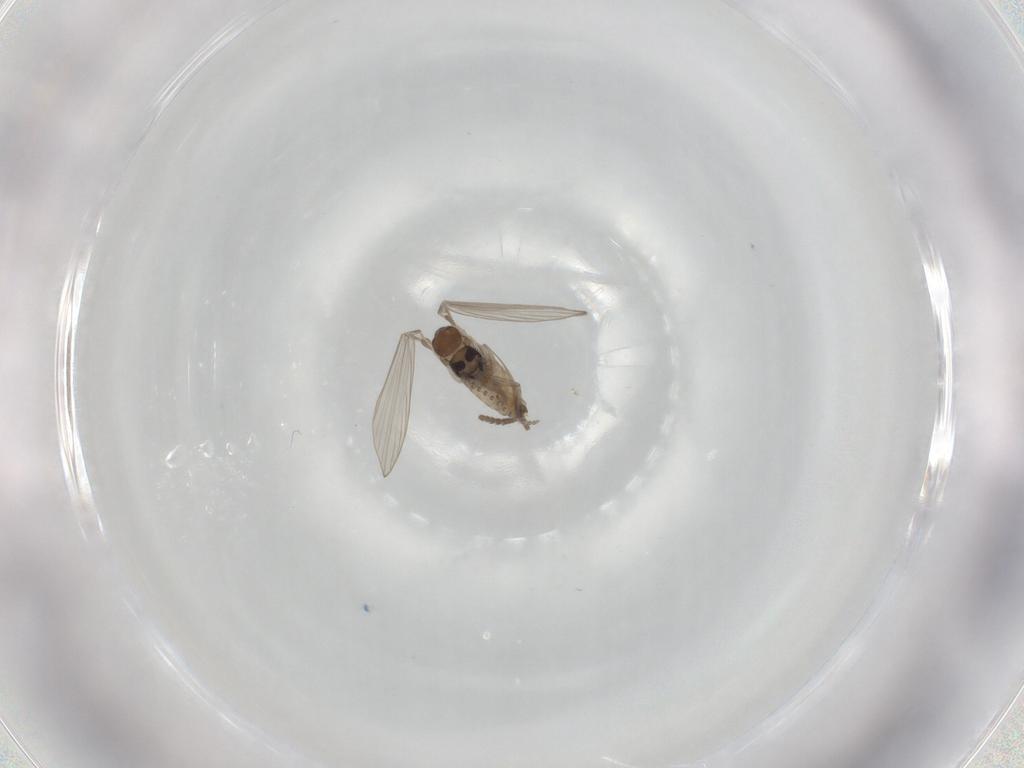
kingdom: Animalia
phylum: Arthropoda
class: Insecta
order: Diptera
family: Psychodidae
